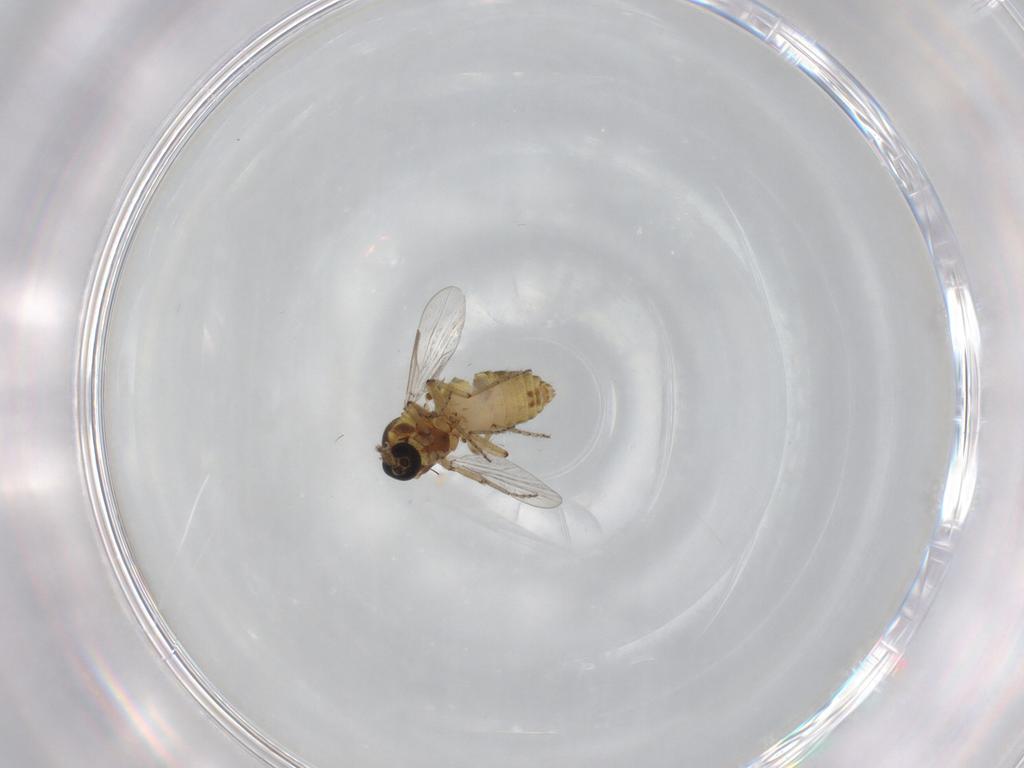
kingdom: Animalia
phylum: Arthropoda
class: Insecta
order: Diptera
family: Ceratopogonidae
